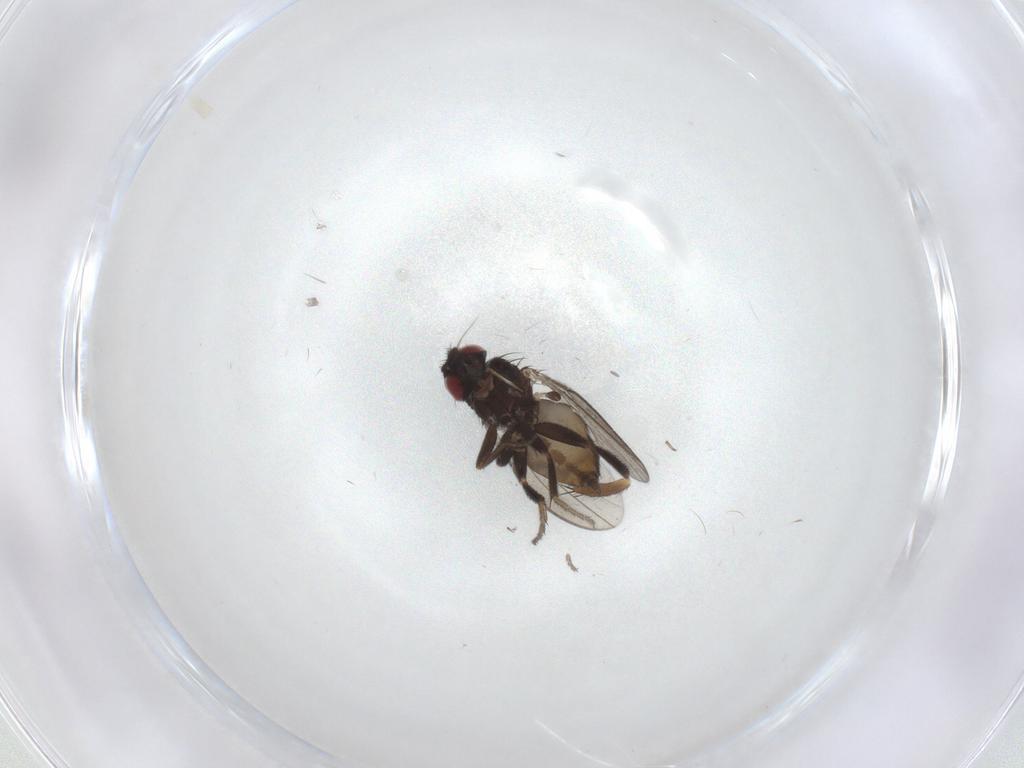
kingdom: Animalia
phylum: Arthropoda
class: Insecta
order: Diptera
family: Milichiidae
